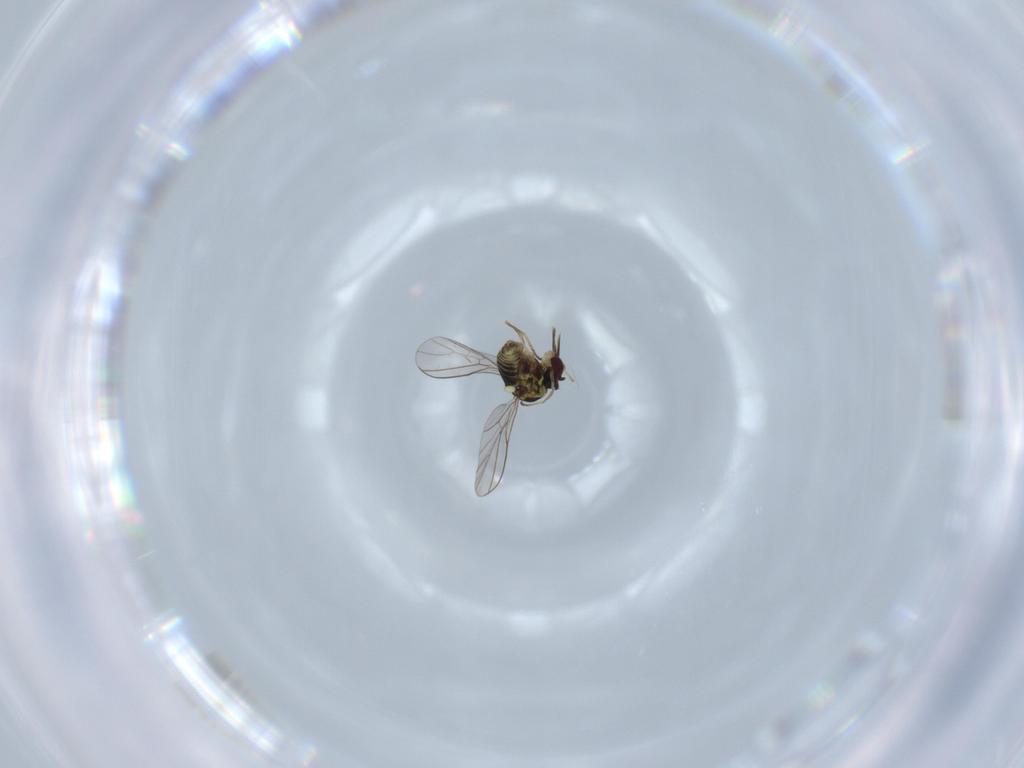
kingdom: Animalia
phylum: Arthropoda
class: Insecta
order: Diptera
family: Mythicomyiidae
